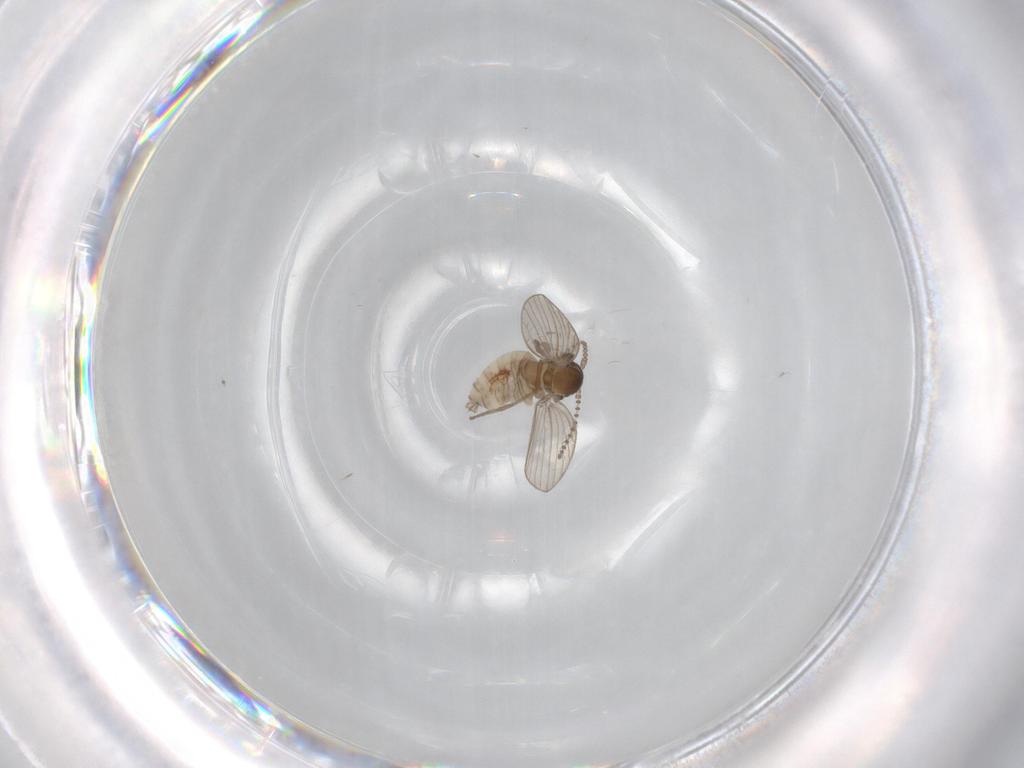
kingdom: Animalia
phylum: Arthropoda
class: Insecta
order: Diptera
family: Psychodidae
